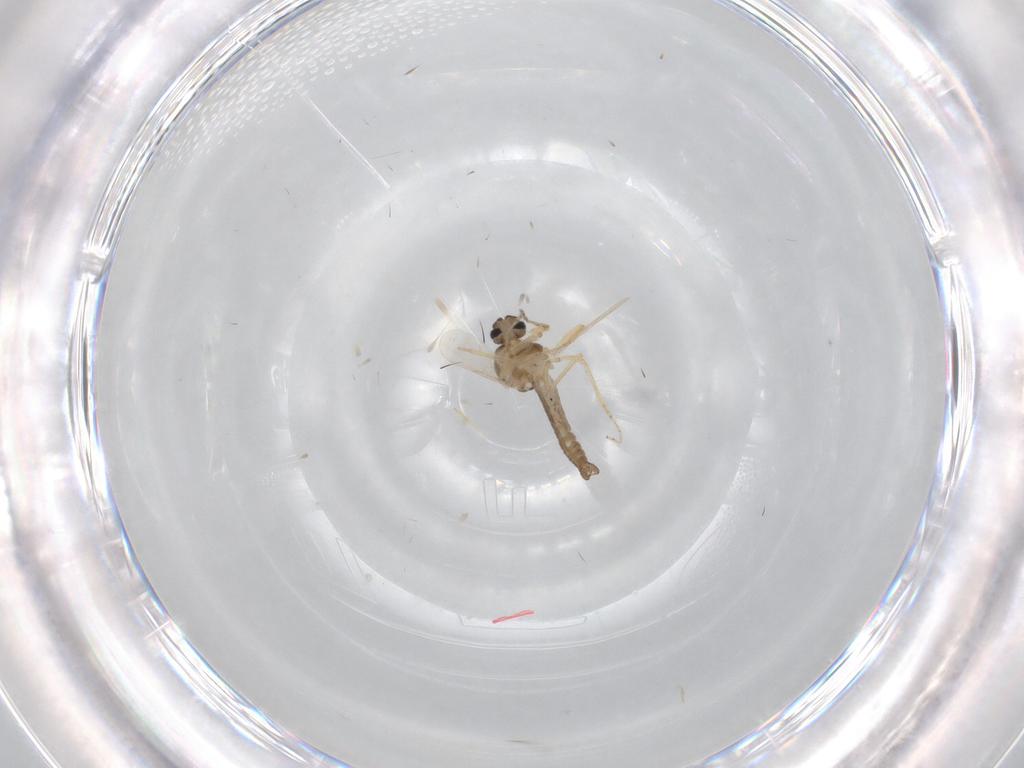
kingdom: Animalia
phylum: Arthropoda
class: Insecta
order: Diptera
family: Ceratopogonidae
